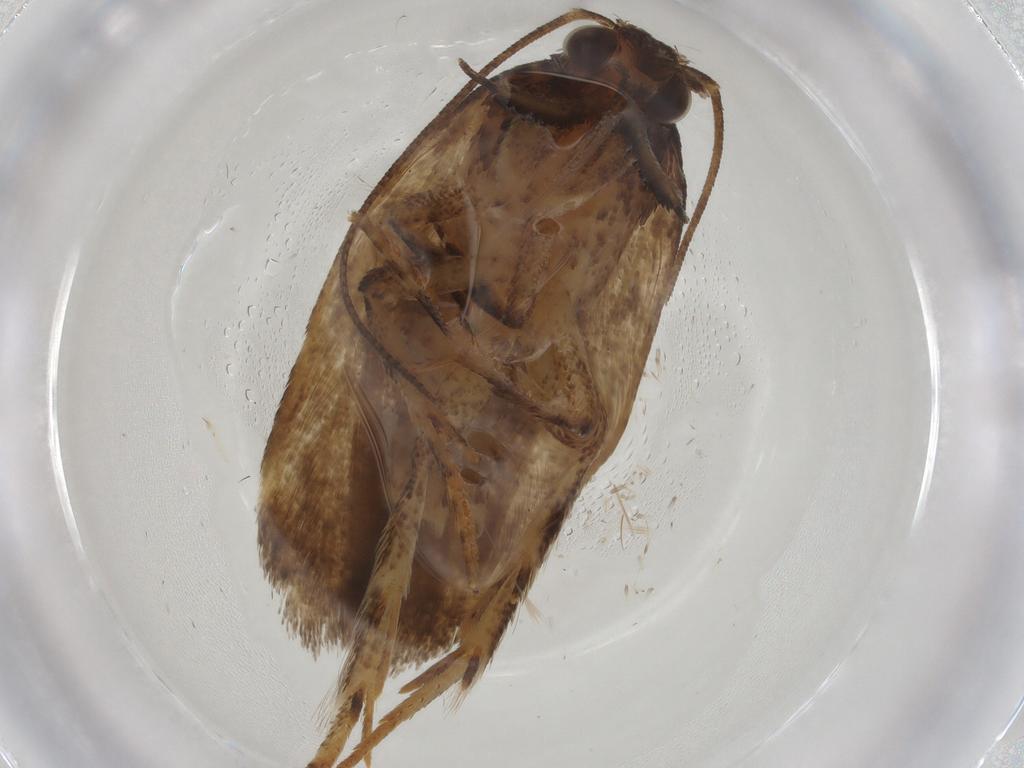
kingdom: Animalia
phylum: Arthropoda
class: Insecta
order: Lepidoptera
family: Gelechiidae
